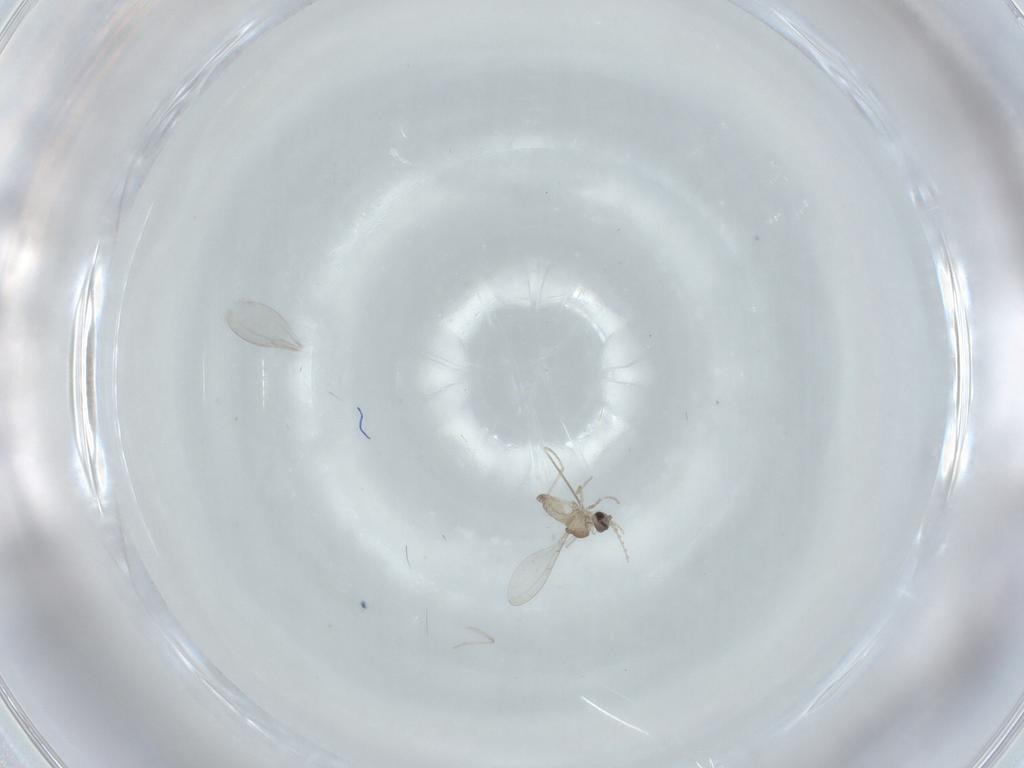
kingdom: Animalia
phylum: Arthropoda
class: Insecta
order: Diptera
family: Cecidomyiidae
